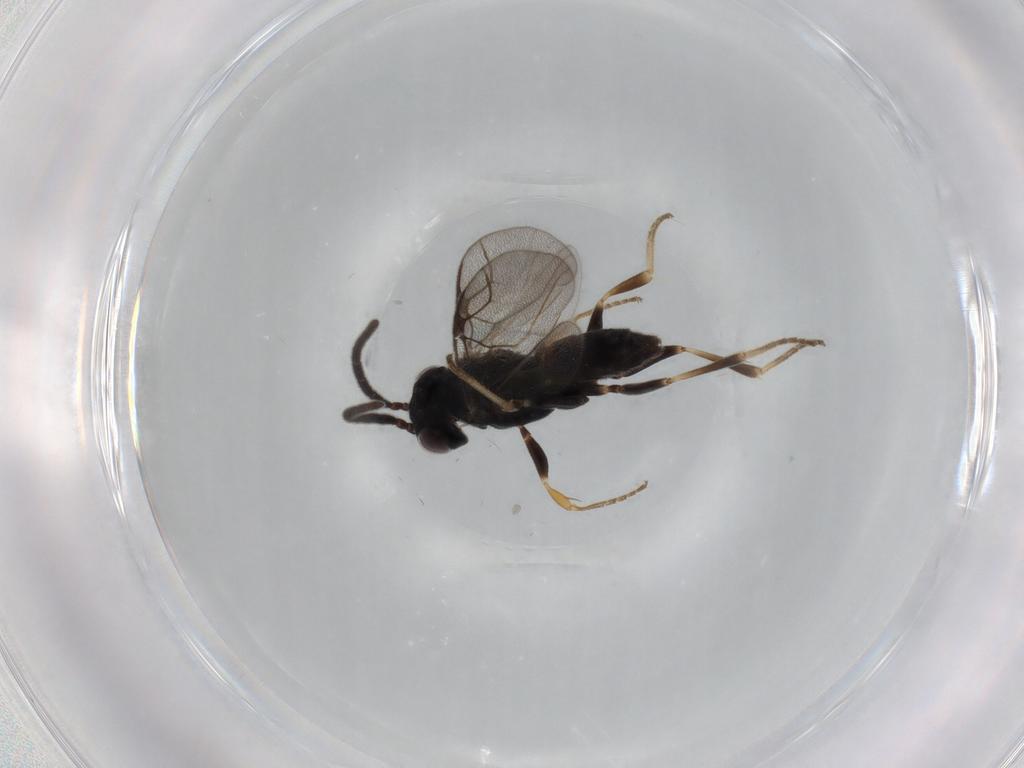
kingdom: Animalia
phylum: Arthropoda
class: Insecta
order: Hymenoptera
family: Dryinidae
